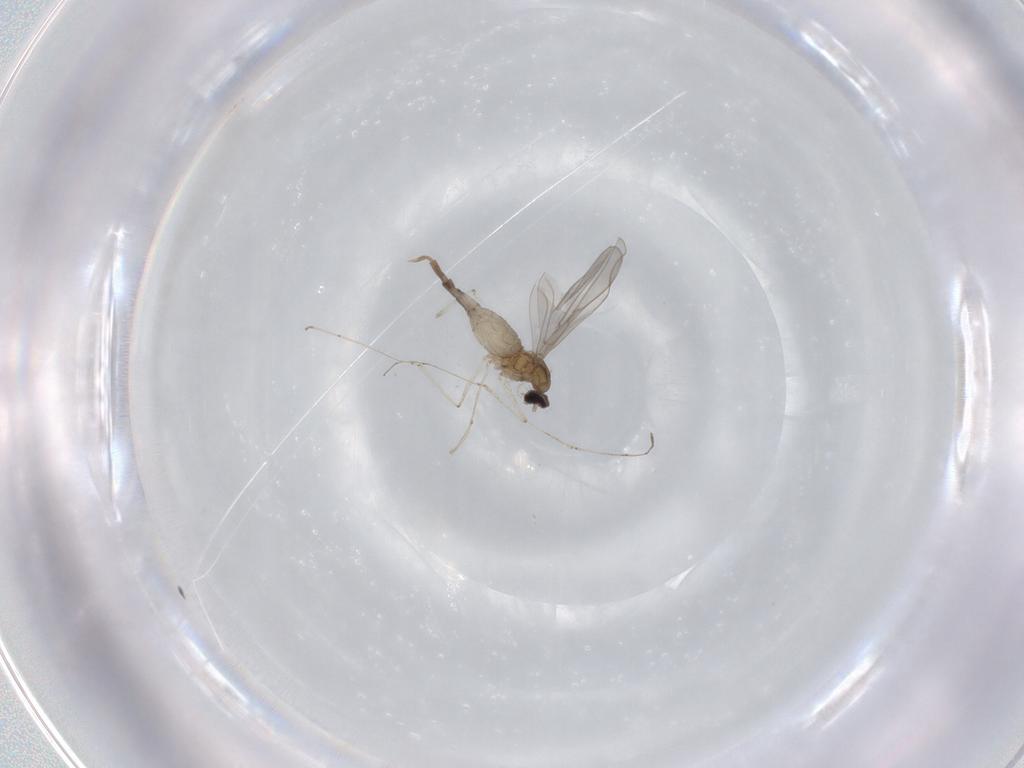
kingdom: Animalia
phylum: Arthropoda
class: Insecta
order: Diptera
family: Cecidomyiidae
